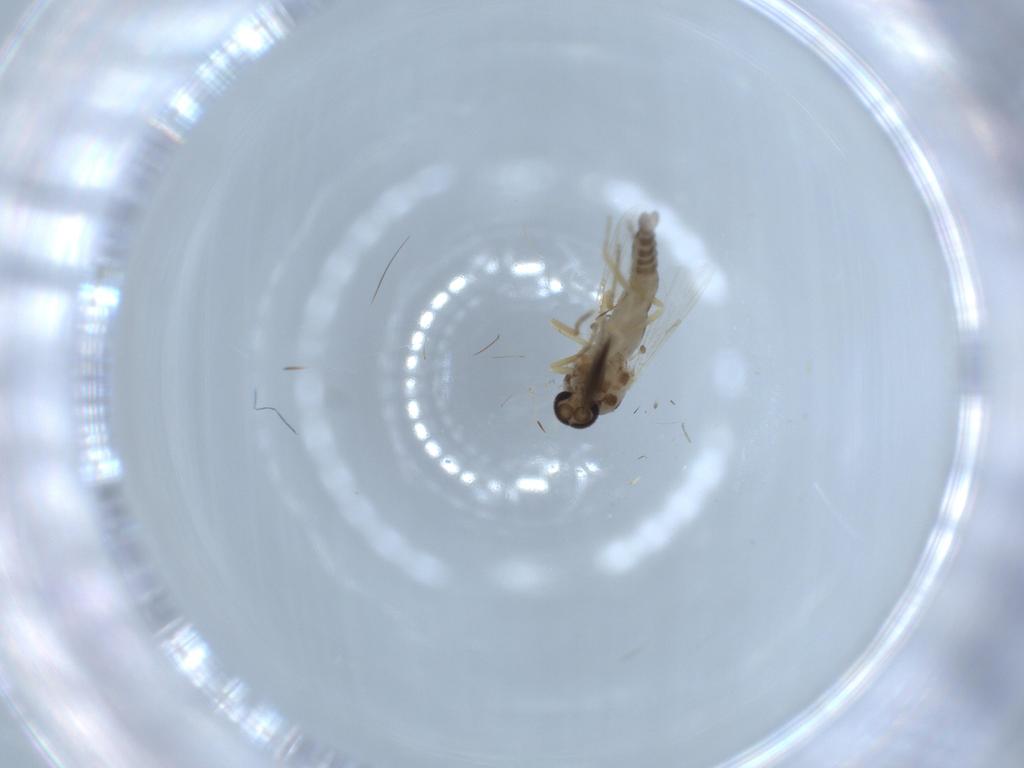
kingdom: Animalia
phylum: Arthropoda
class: Insecta
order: Diptera
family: Ceratopogonidae
